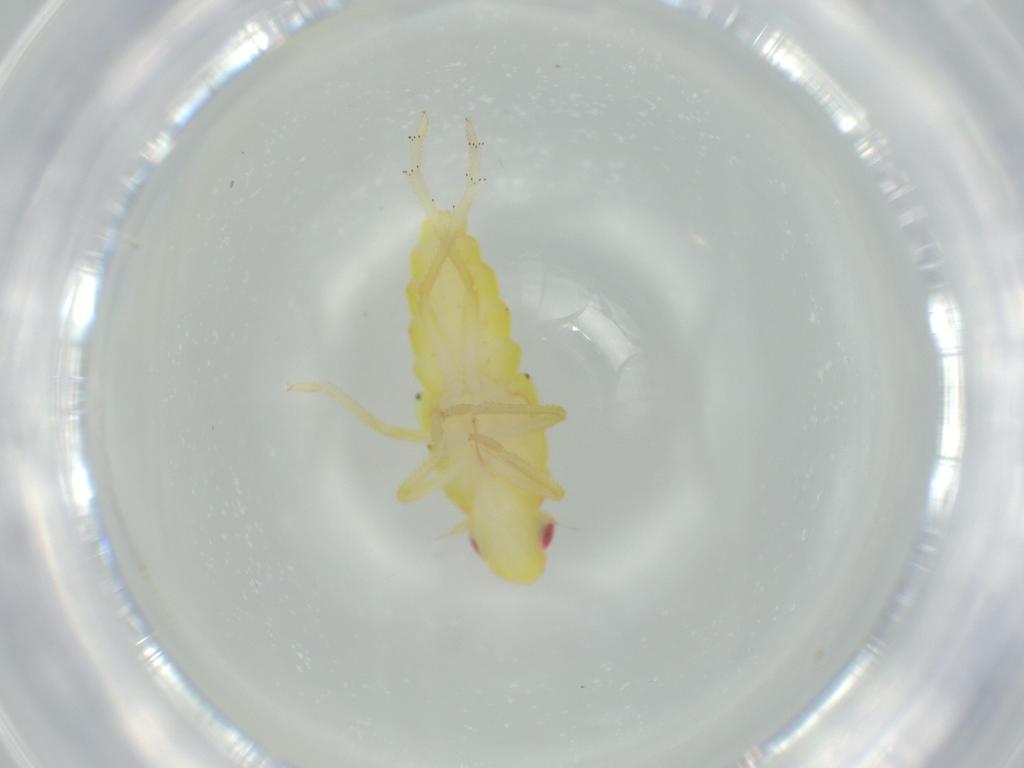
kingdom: Animalia
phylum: Arthropoda
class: Insecta
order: Hemiptera
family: Tropiduchidae
